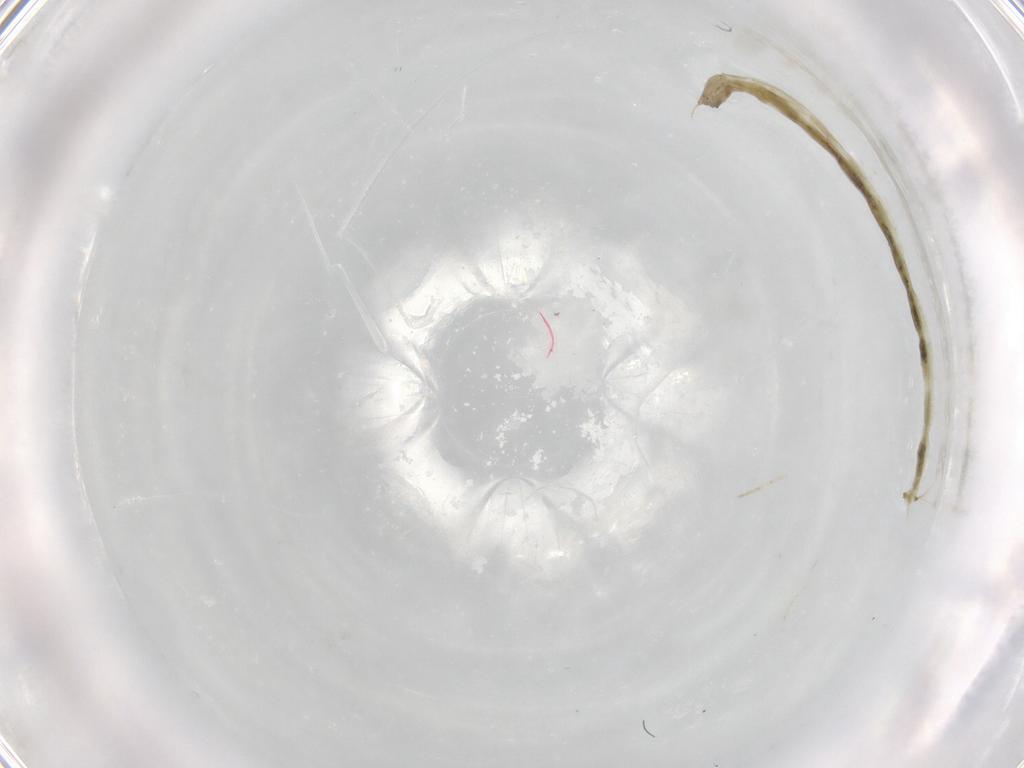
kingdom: Animalia
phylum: Arthropoda
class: Insecta
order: Diptera
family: Chironomidae
